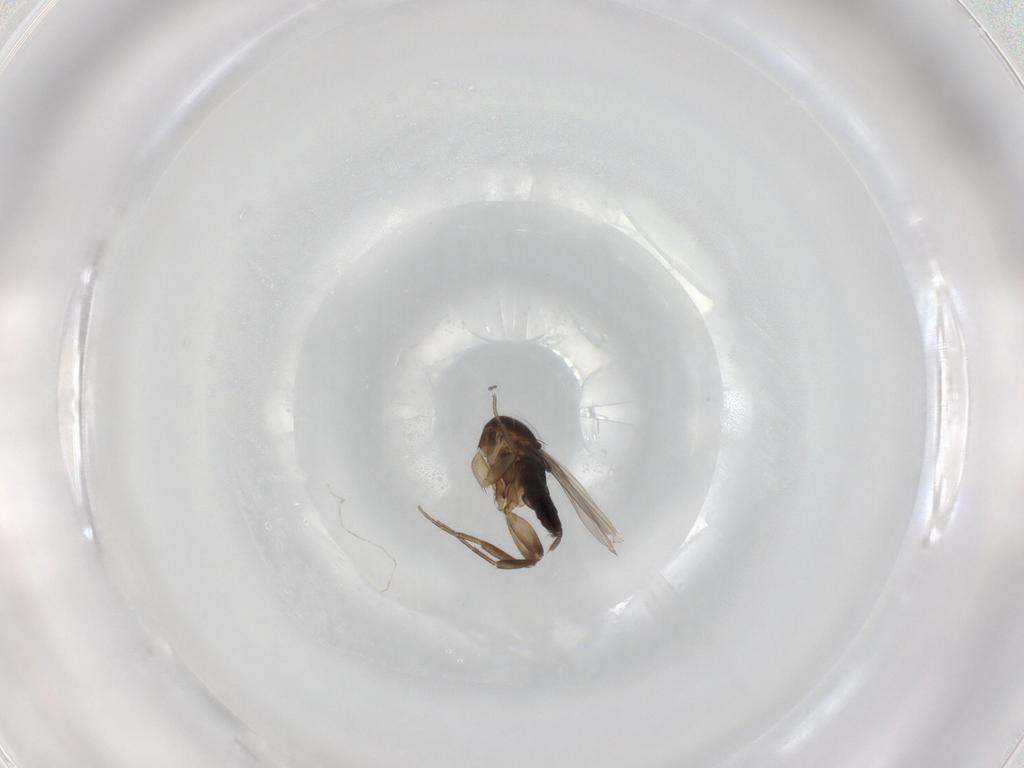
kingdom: Animalia
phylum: Arthropoda
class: Insecta
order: Diptera
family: Phoridae
